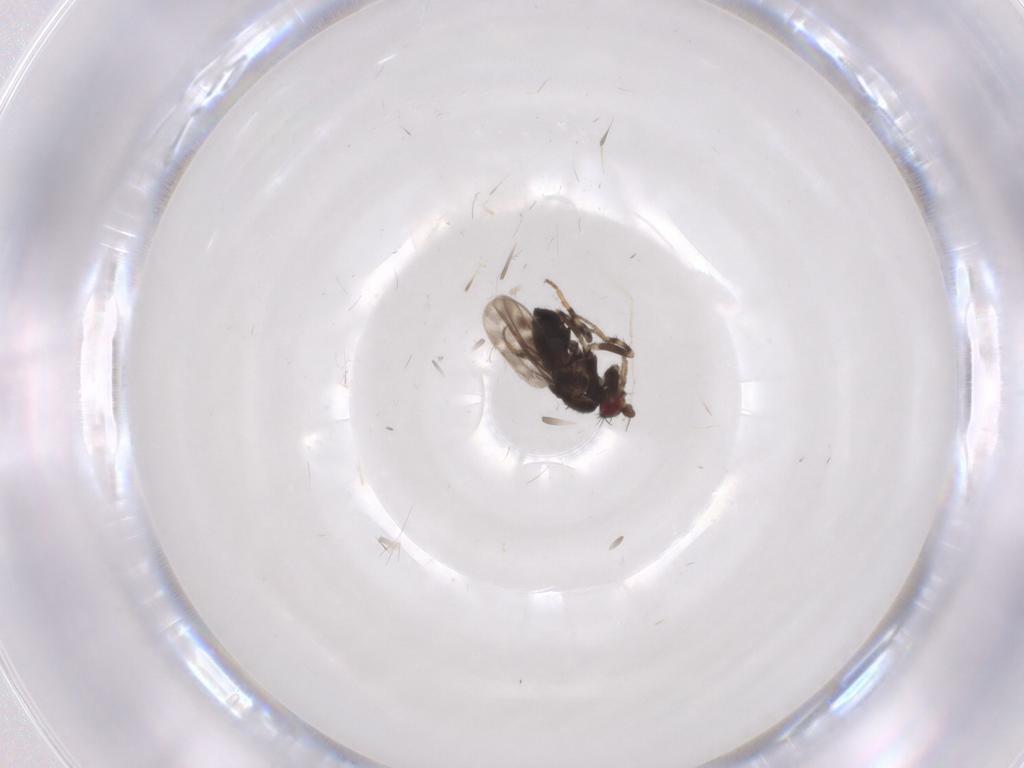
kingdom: Animalia
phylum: Arthropoda
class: Insecta
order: Diptera
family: Sphaeroceridae
